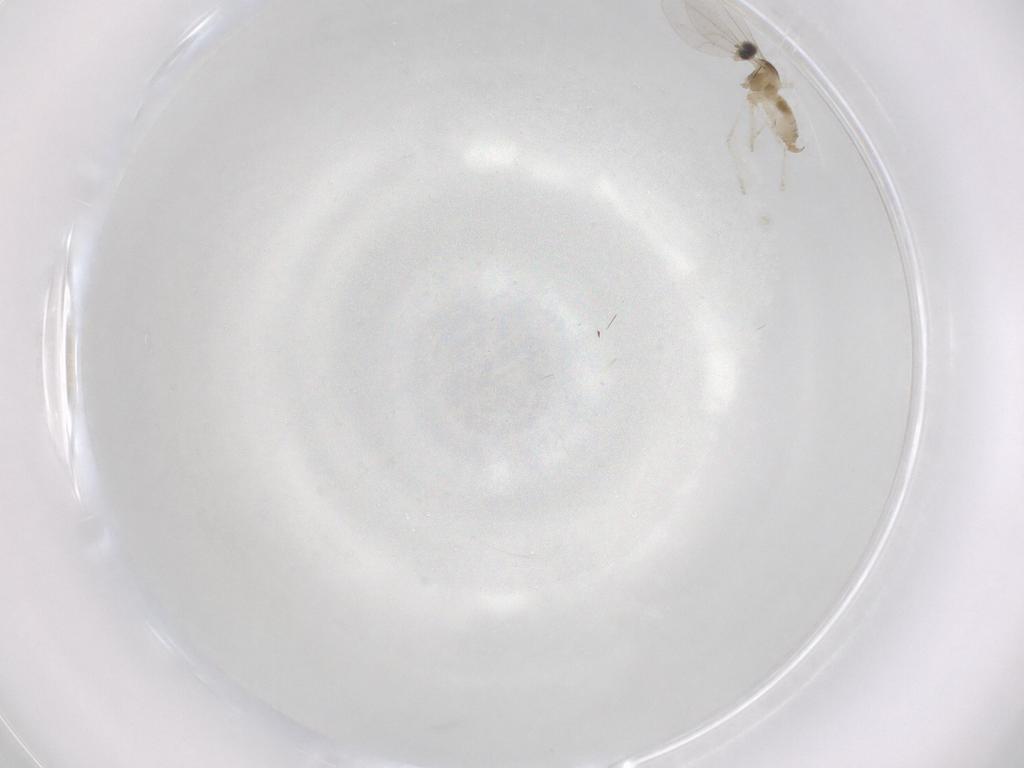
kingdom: Animalia
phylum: Arthropoda
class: Insecta
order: Diptera
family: Cecidomyiidae
